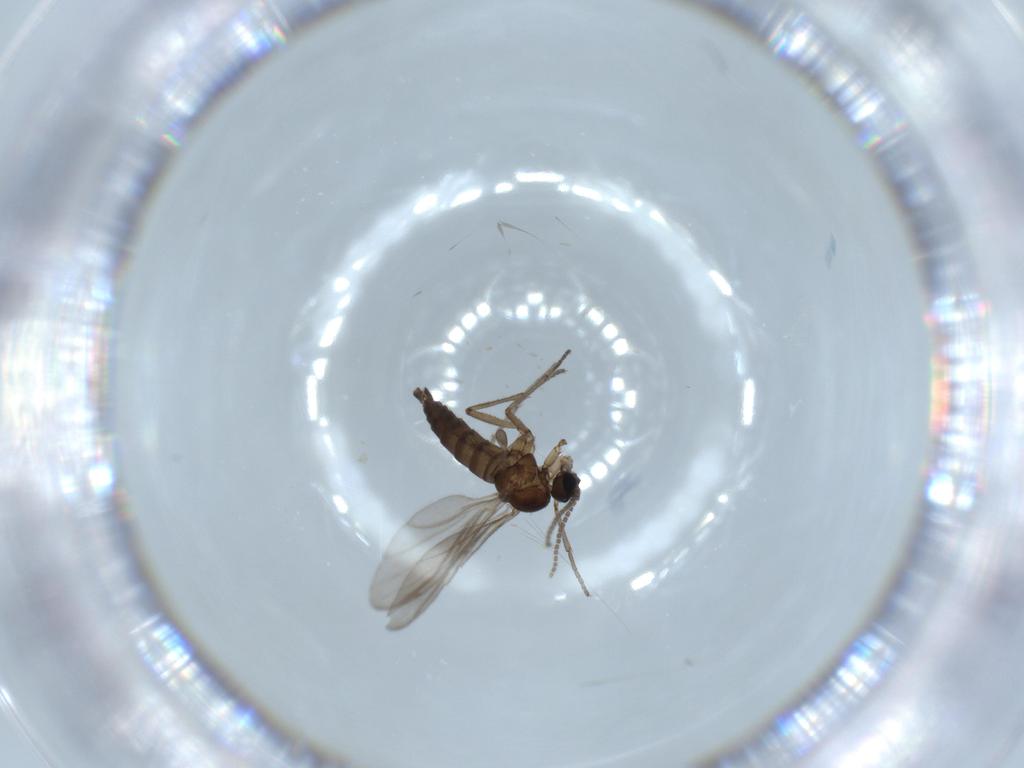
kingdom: Animalia
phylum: Arthropoda
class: Insecta
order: Diptera
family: Sciaridae
